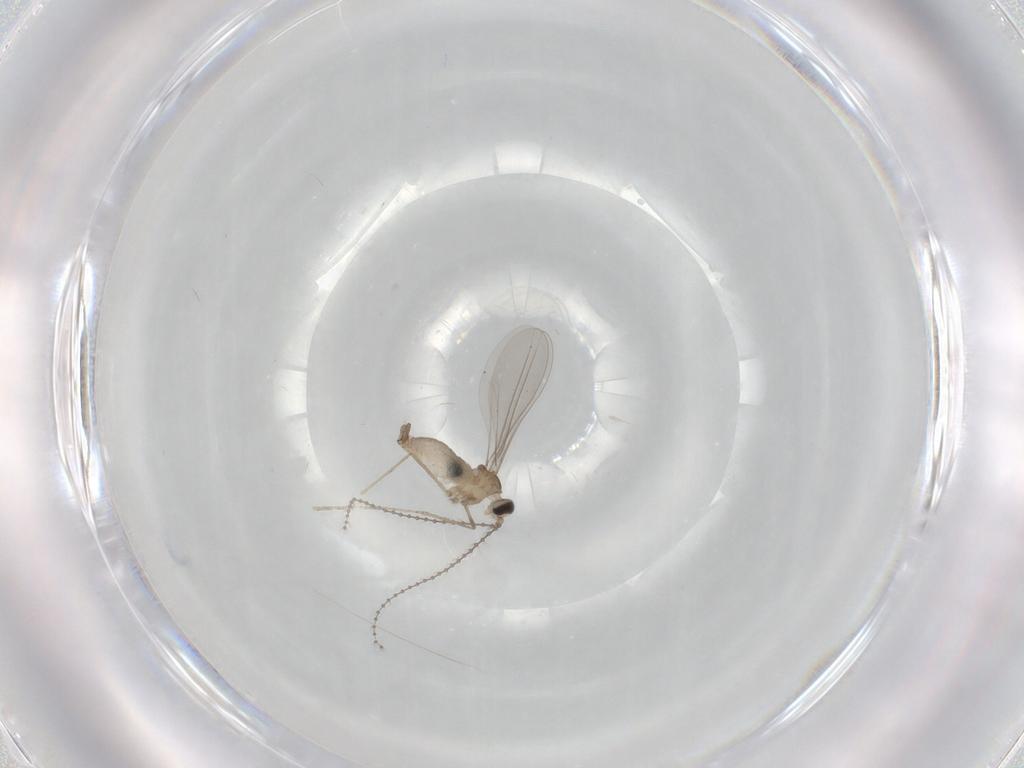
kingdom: Animalia
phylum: Arthropoda
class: Insecta
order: Diptera
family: Cecidomyiidae
